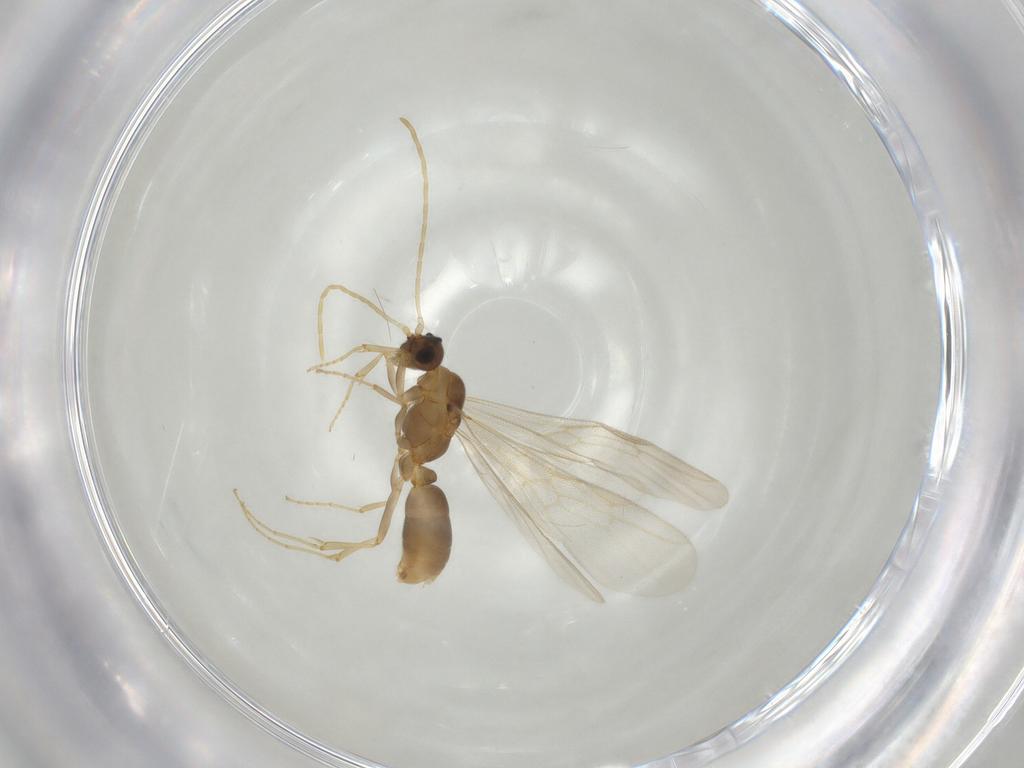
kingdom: Animalia
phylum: Arthropoda
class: Insecta
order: Hymenoptera
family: Formicidae
